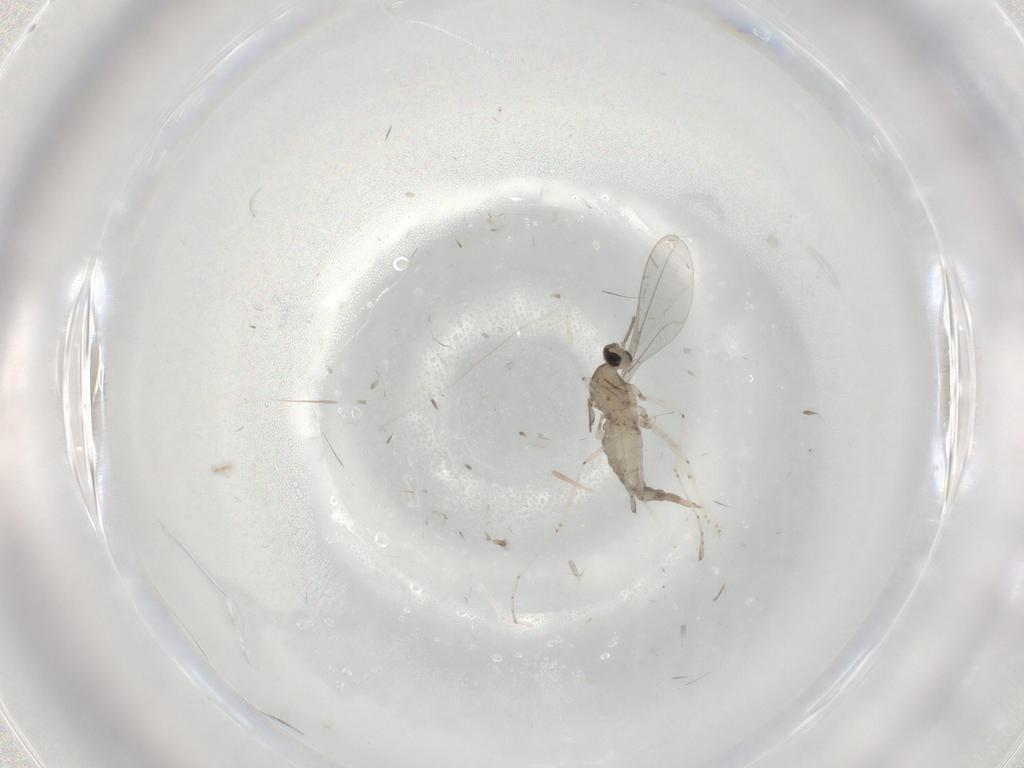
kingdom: Animalia
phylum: Arthropoda
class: Insecta
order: Diptera
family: Cecidomyiidae
